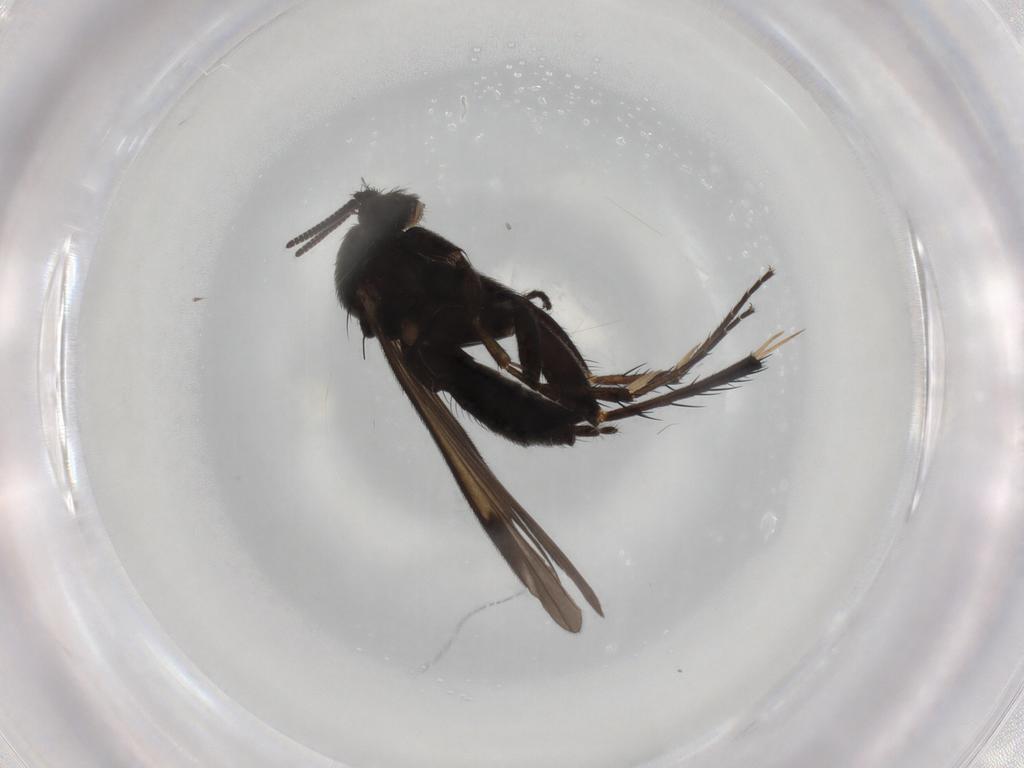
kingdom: Animalia
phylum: Arthropoda
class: Insecta
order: Diptera
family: Mycetophilidae
